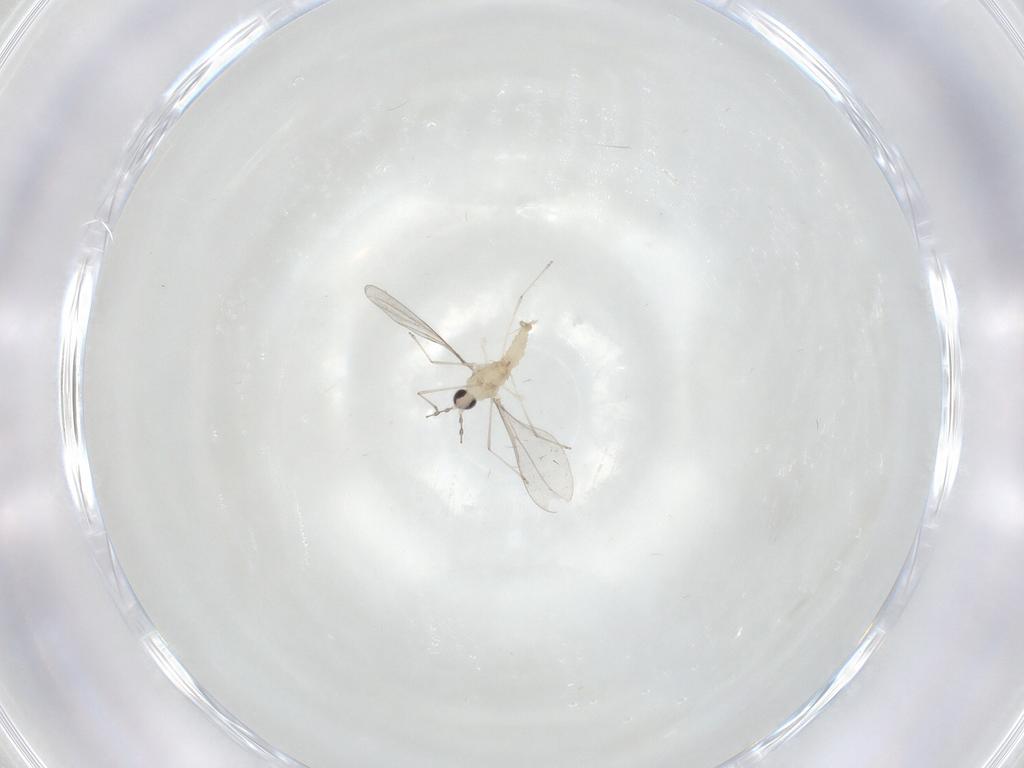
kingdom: Animalia
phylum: Arthropoda
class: Insecta
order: Diptera
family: Cecidomyiidae
